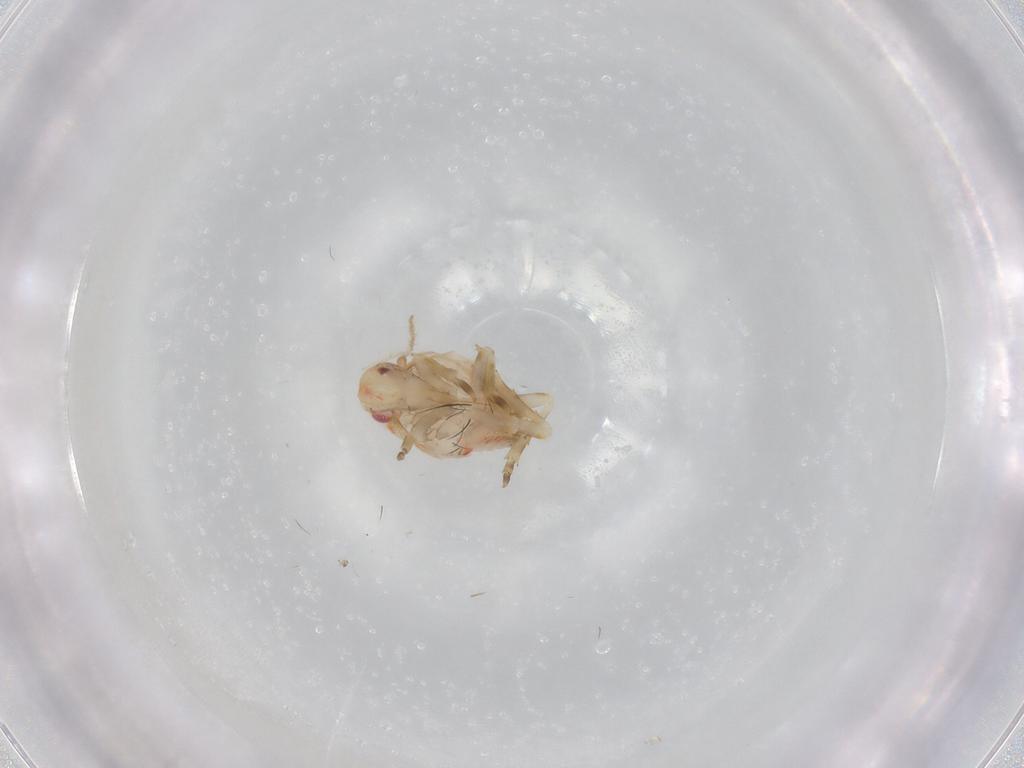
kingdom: Animalia
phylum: Arthropoda
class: Insecta
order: Hemiptera
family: Flatidae
